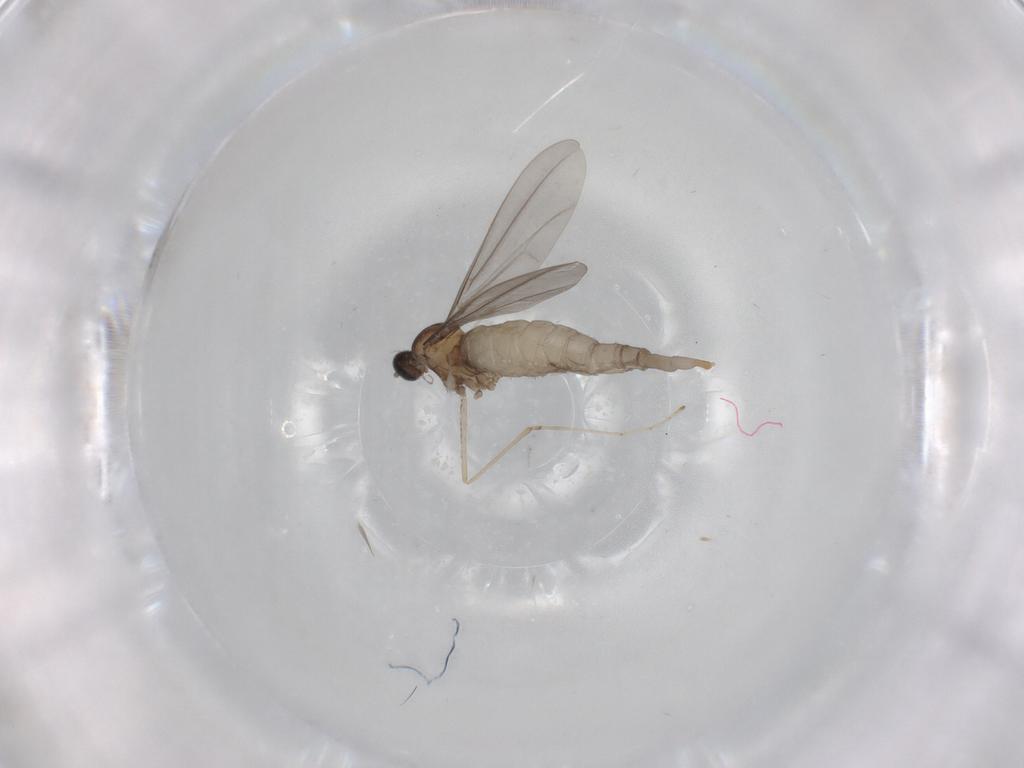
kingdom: Animalia
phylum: Arthropoda
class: Insecta
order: Diptera
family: Cecidomyiidae
